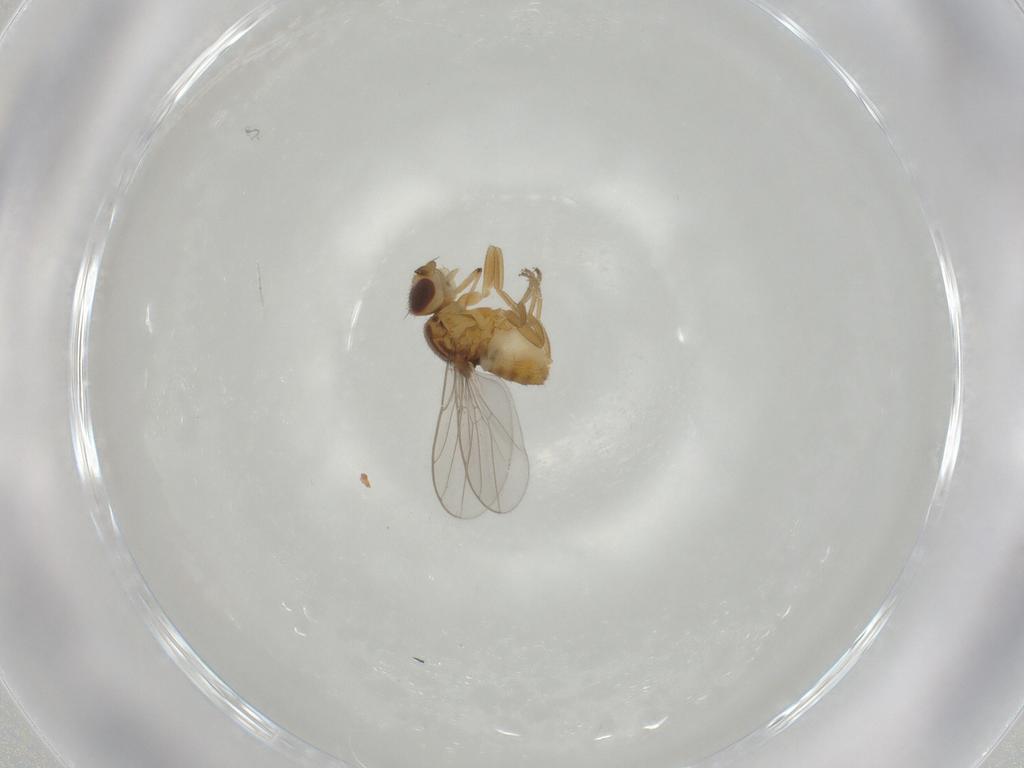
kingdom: Animalia
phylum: Arthropoda
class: Insecta
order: Diptera
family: Chloropidae
